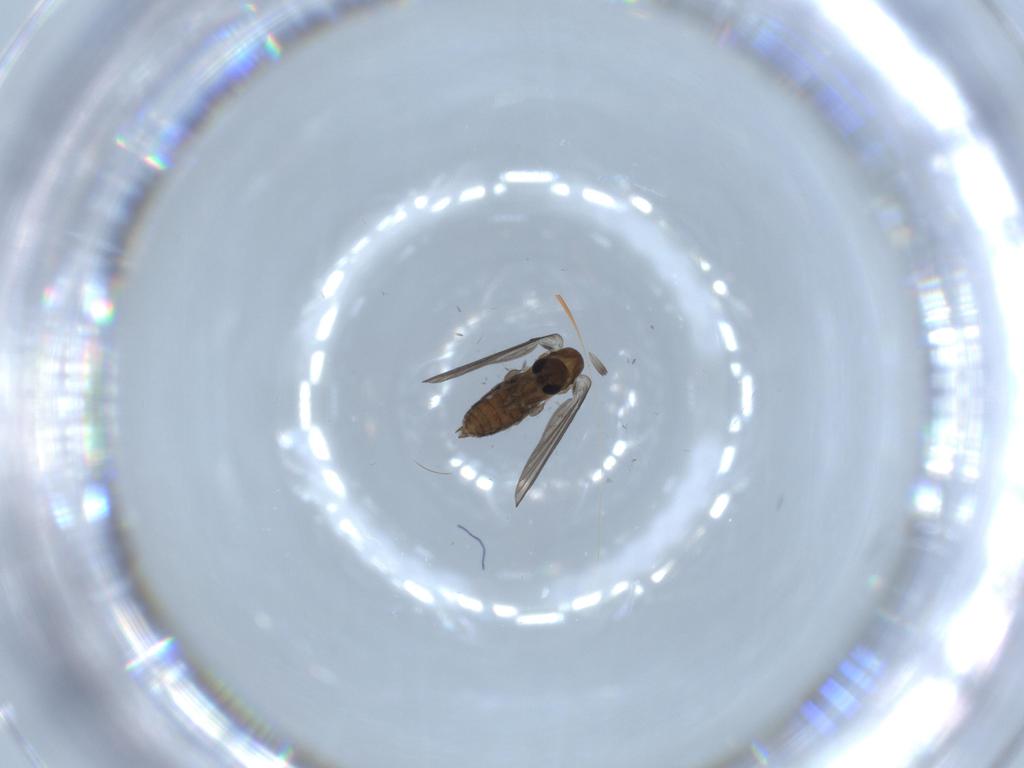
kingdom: Animalia
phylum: Arthropoda
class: Insecta
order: Diptera
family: Psychodidae
